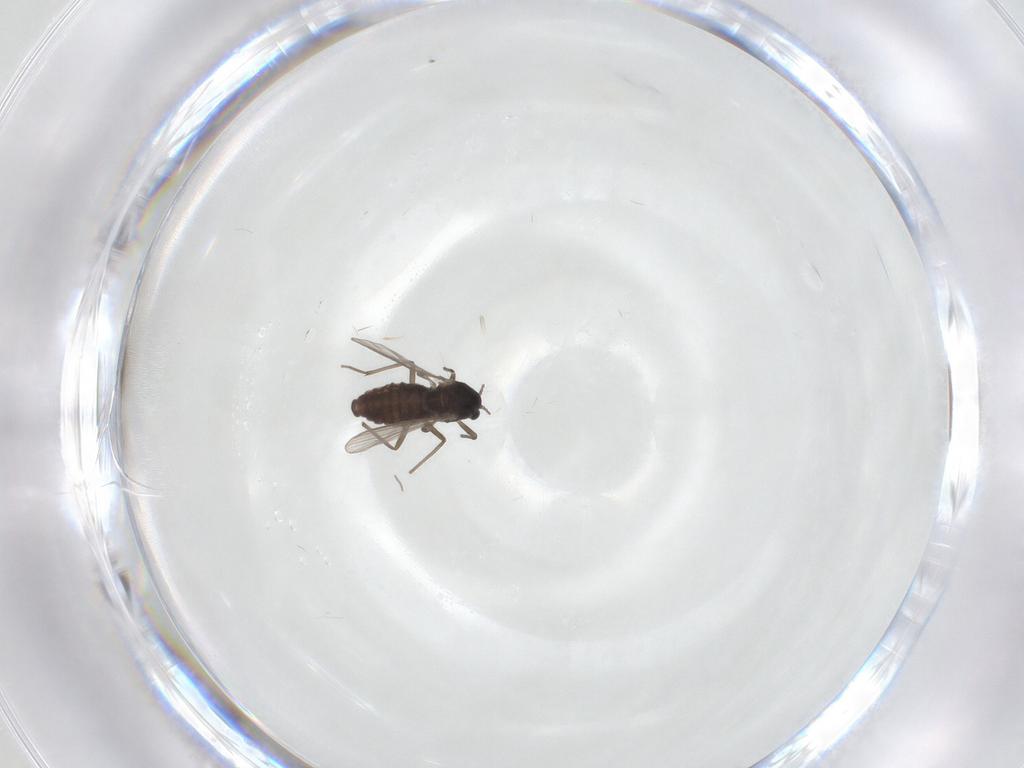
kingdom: Animalia
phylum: Arthropoda
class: Insecta
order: Diptera
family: Chironomidae
